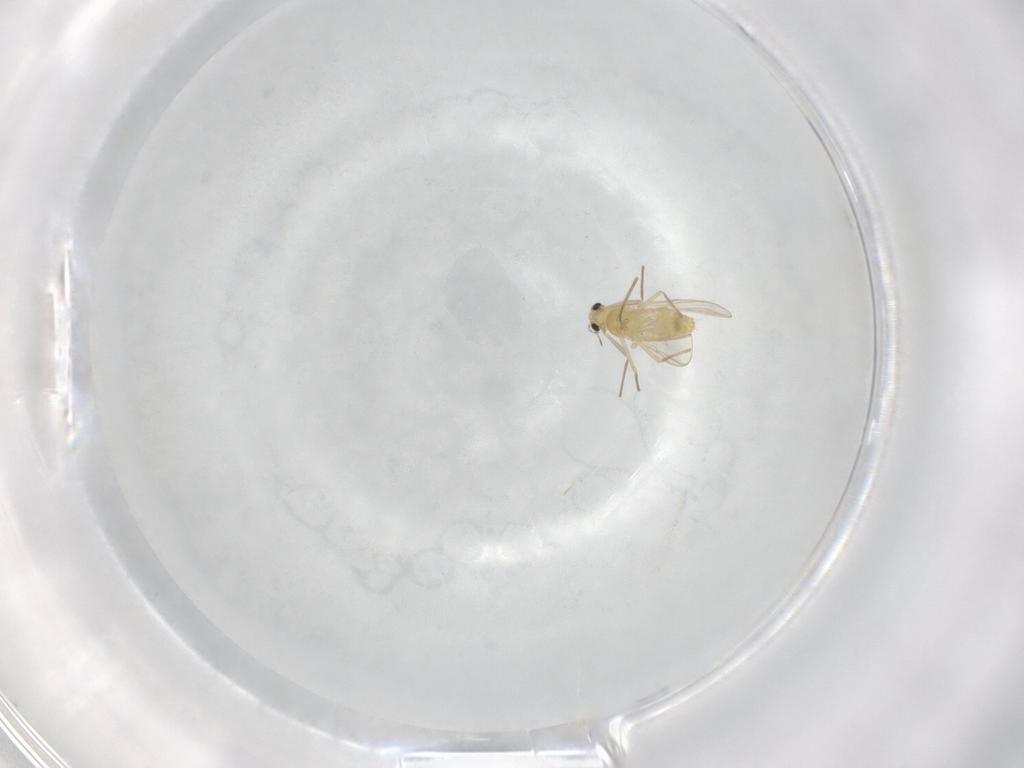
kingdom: Animalia
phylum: Arthropoda
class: Insecta
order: Diptera
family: Chironomidae
